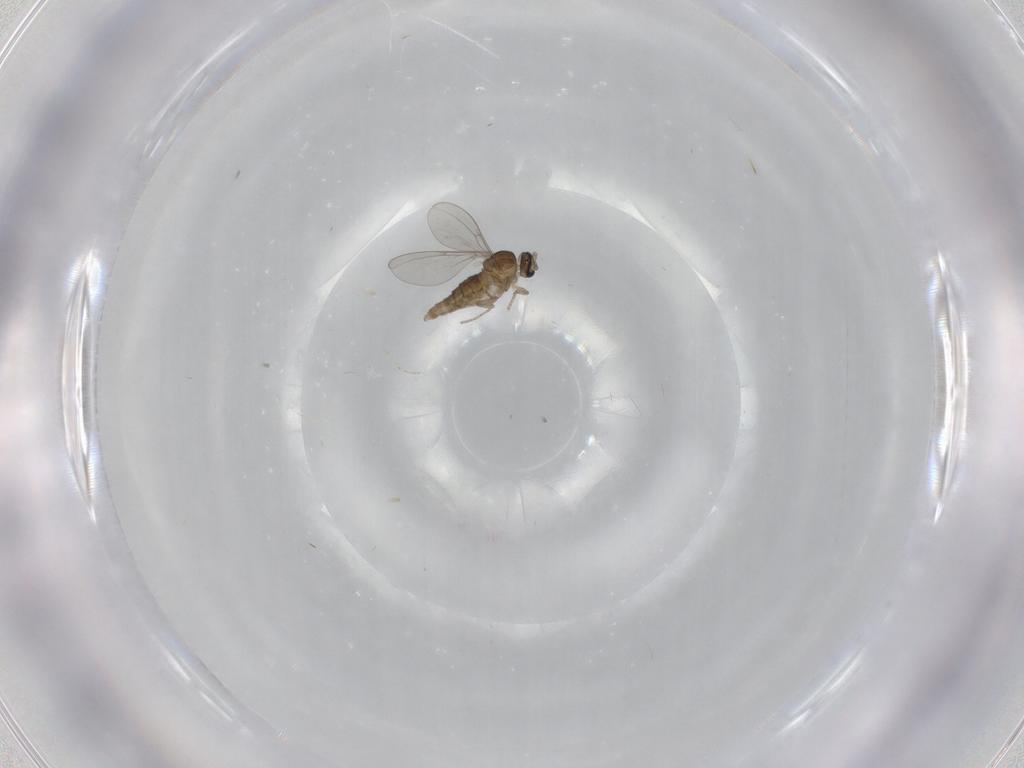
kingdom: Animalia
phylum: Arthropoda
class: Insecta
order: Diptera
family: Cecidomyiidae
